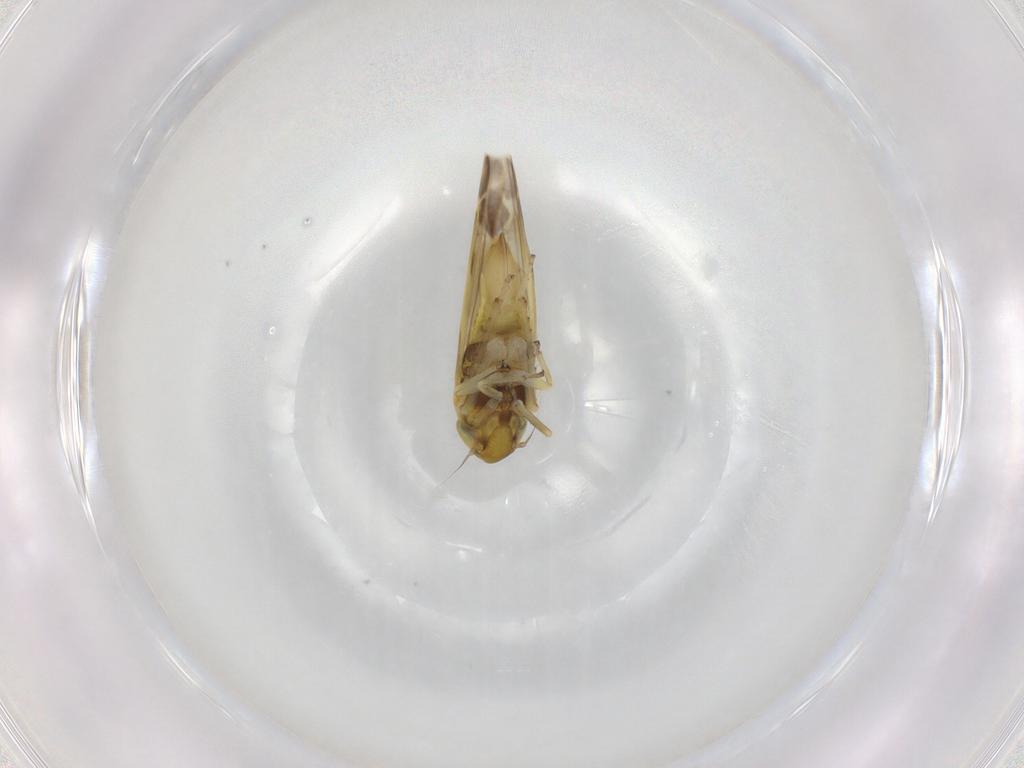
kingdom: Animalia
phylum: Arthropoda
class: Insecta
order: Hemiptera
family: Cicadellidae
